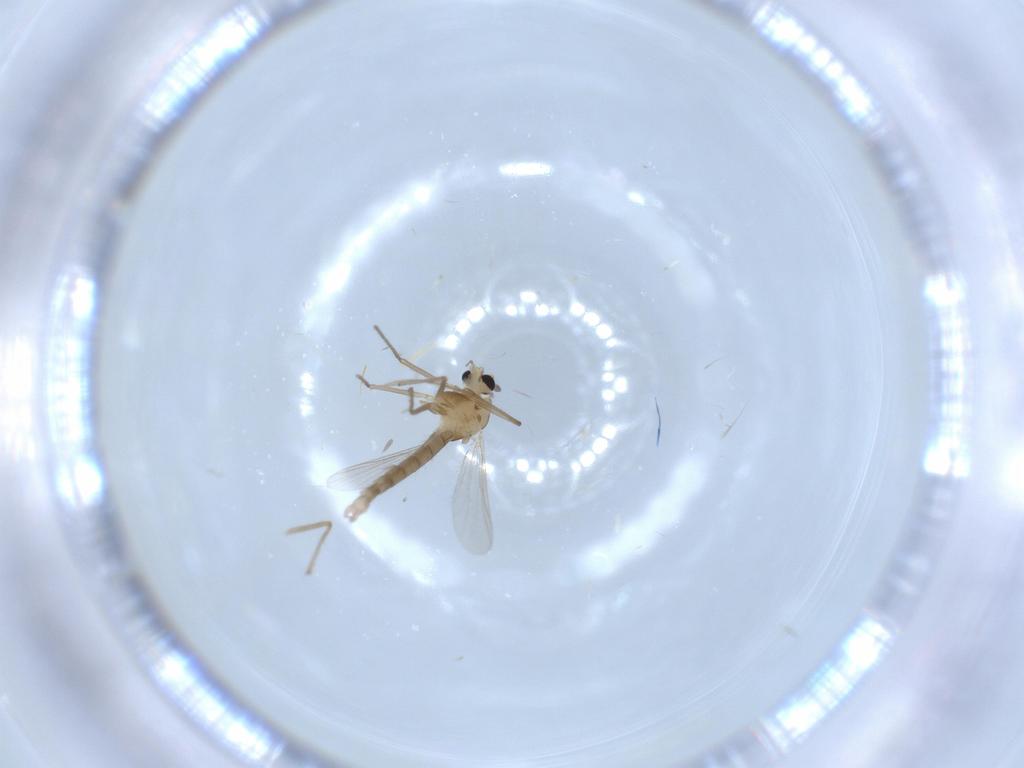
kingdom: Animalia
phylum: Arthropoda
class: Insecta
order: Diptera
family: Chironomidae
